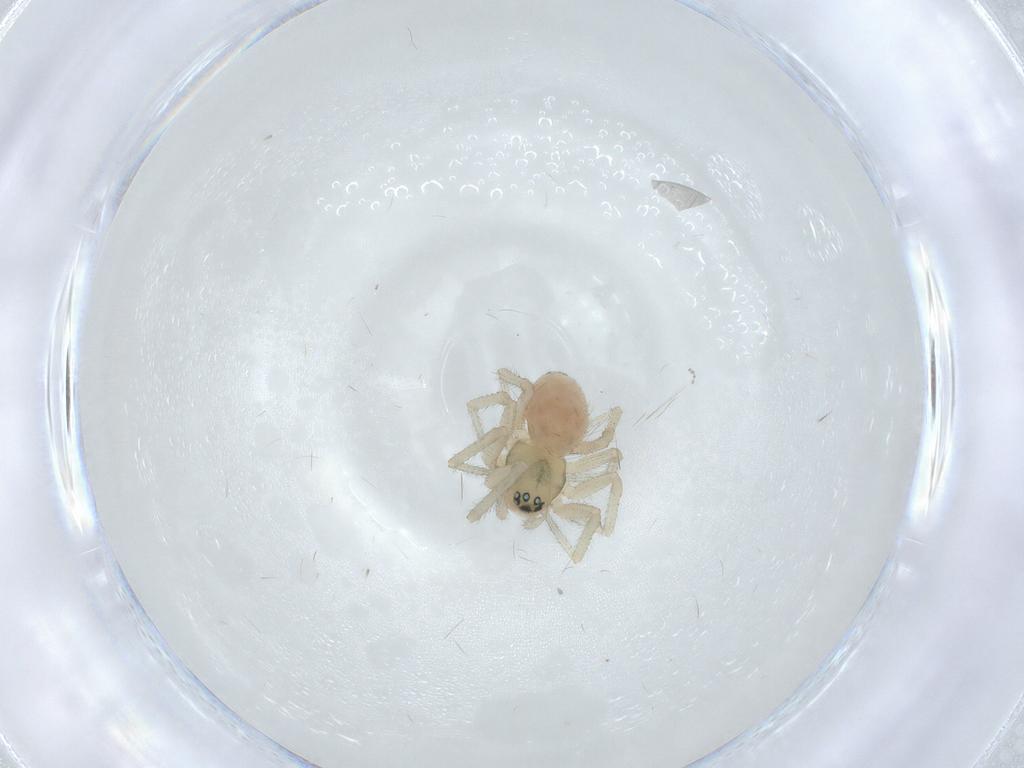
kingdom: Animalia
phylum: Arthropoda
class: Arachnida
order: Araneae
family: Linyphiidae
